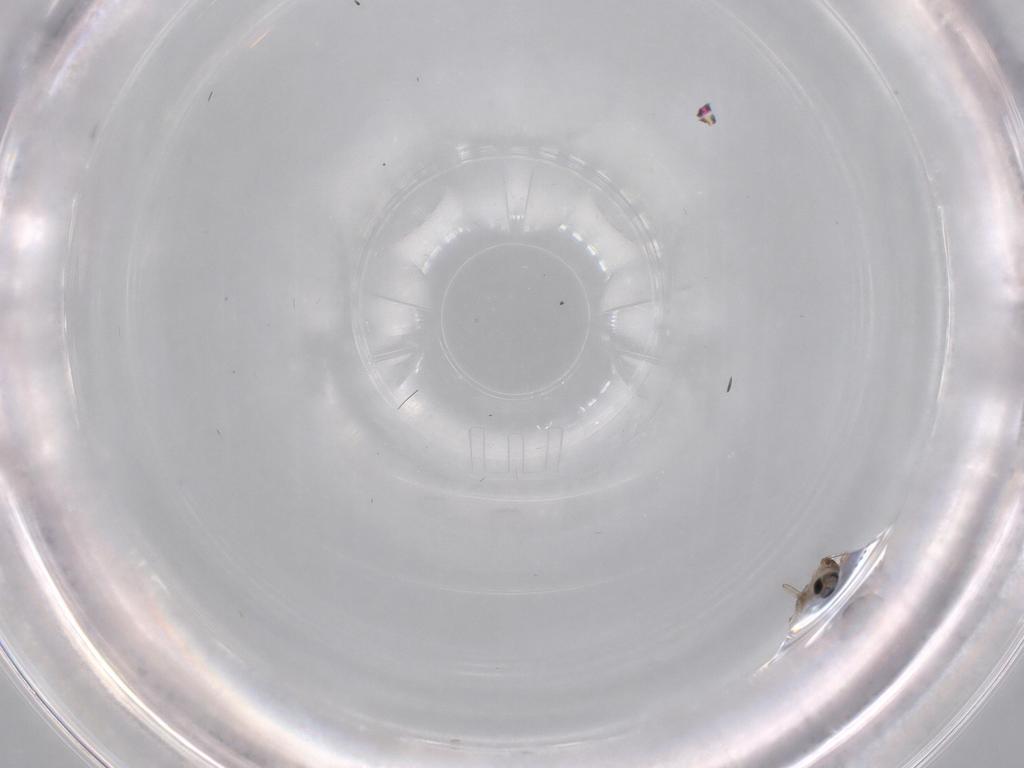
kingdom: Animalia
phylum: Arthropoda
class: Insecta
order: Diptera
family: Cecidomyiidae
